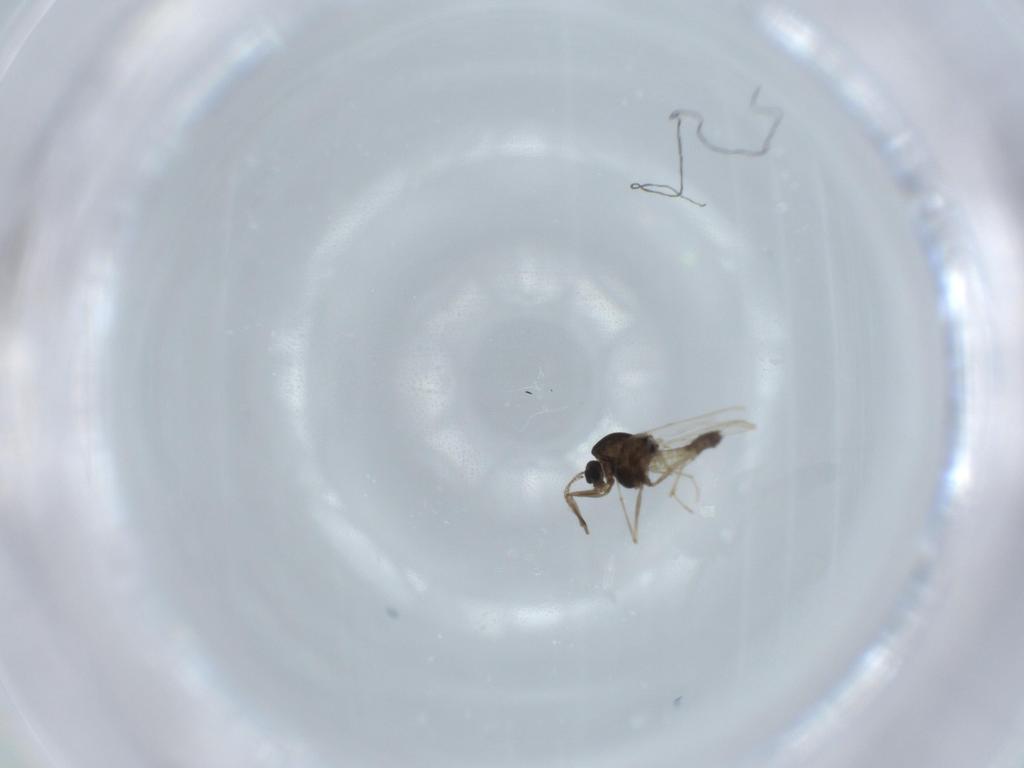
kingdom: Animalia
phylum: Arthropoda
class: Insecta
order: Diptera
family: Chironomidae
